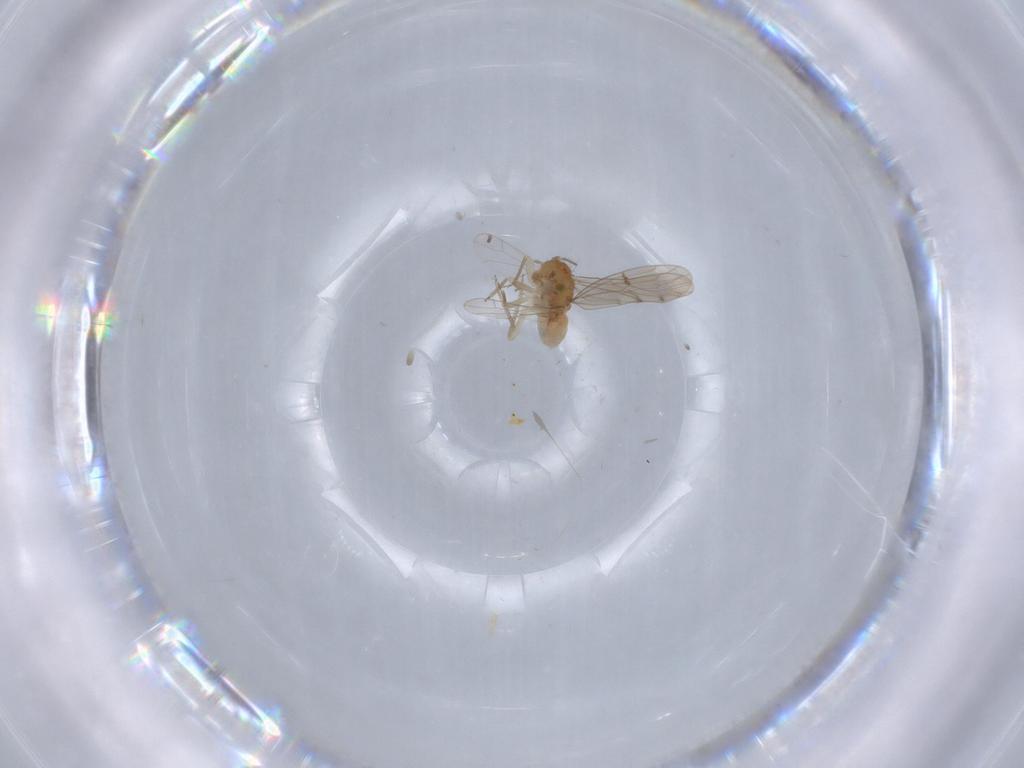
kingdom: Animalia
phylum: Arthropoda
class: Insecta
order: Psocodea
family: Ectopsocidae
